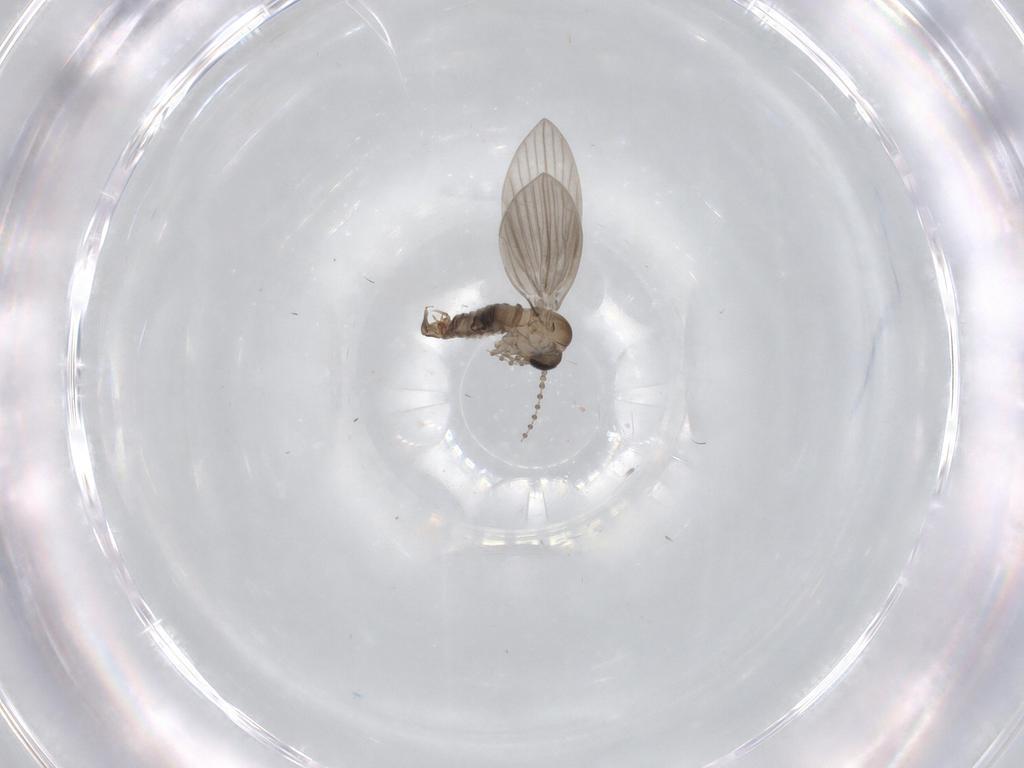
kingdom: Animalia
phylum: Arthropoda
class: Insecta
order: Diptera
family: Psychodidae
